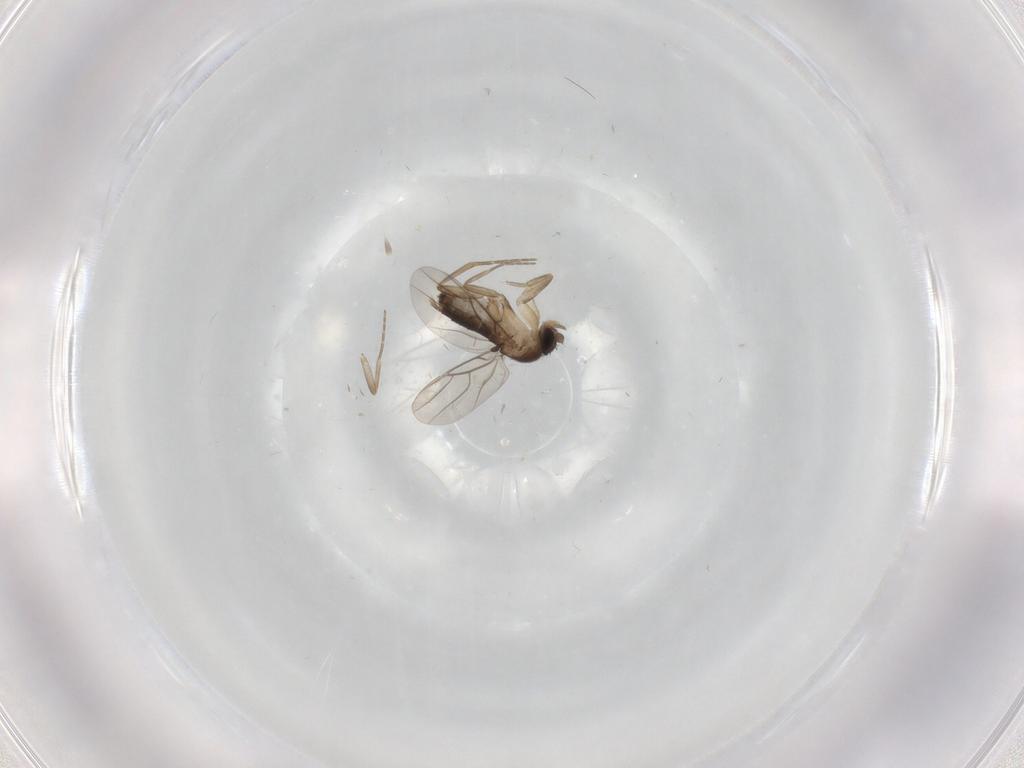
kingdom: Animalia
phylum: Arthropoda
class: Insecta
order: Diptera
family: Phoridae
